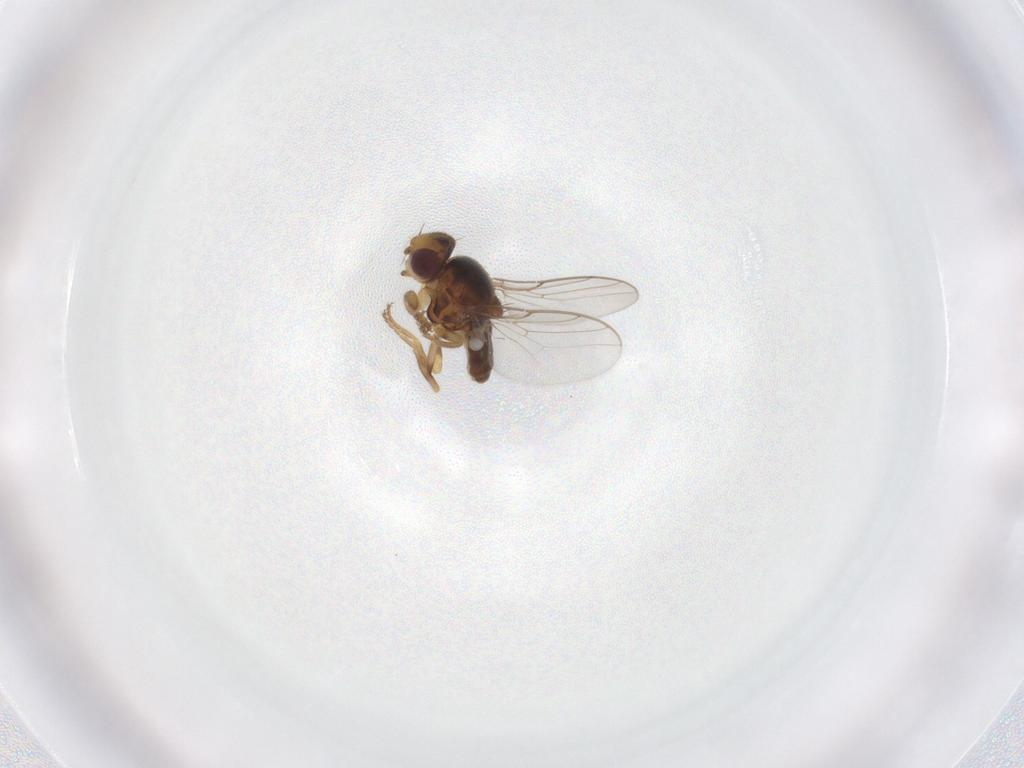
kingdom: Animalia
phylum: Arthropoda
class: Insecta
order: Diptera
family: Chloropidae
